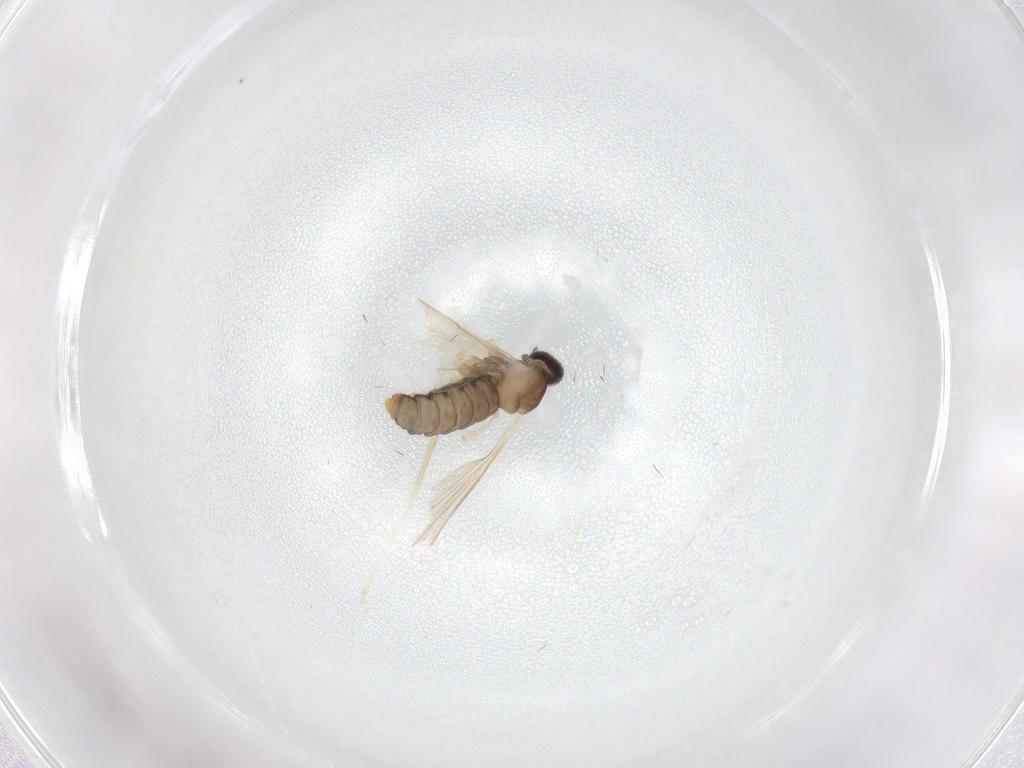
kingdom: Animalia
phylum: Arthropoda
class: Insecta
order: Diptera
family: Cecidomyiidae
